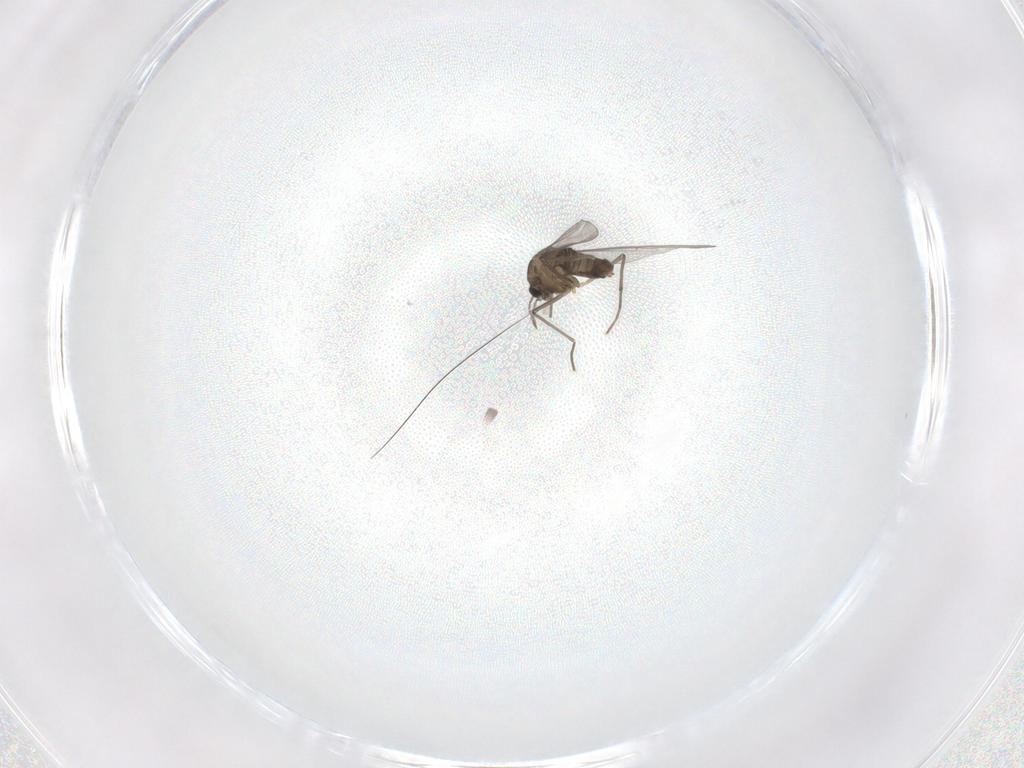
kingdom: Animalia
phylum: Arthropoda
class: Insecta
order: Diptera
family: Chironomidae
